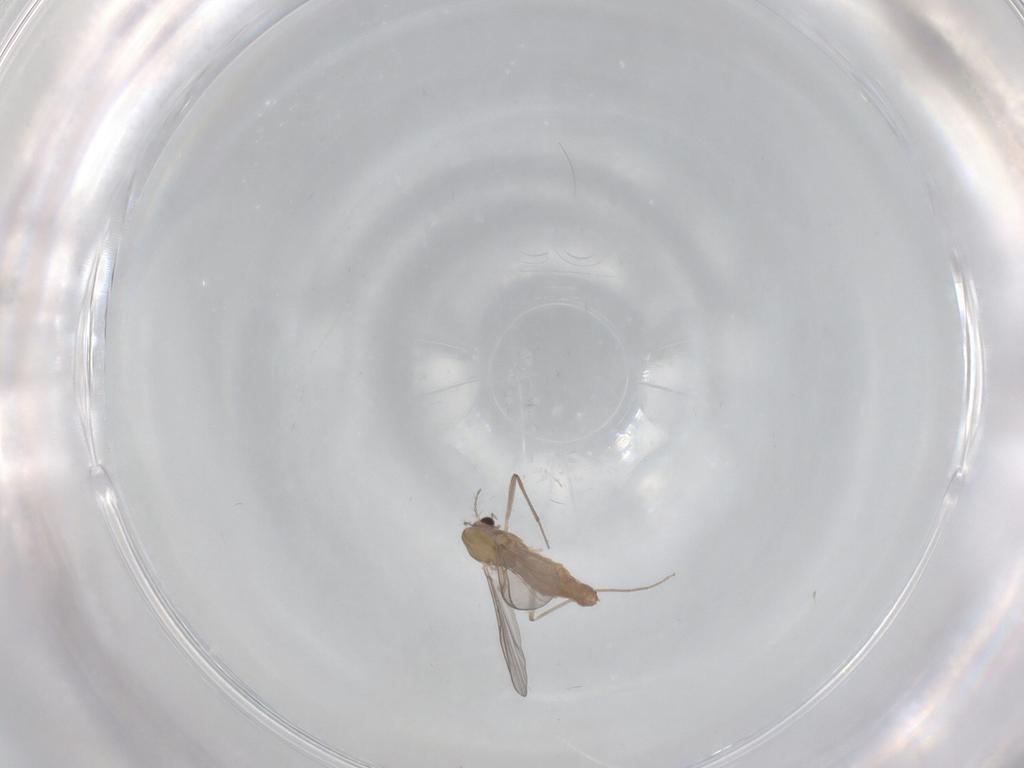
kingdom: Animalia
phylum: Arthropoda
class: Insecta
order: Diptera
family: Chironomidae
